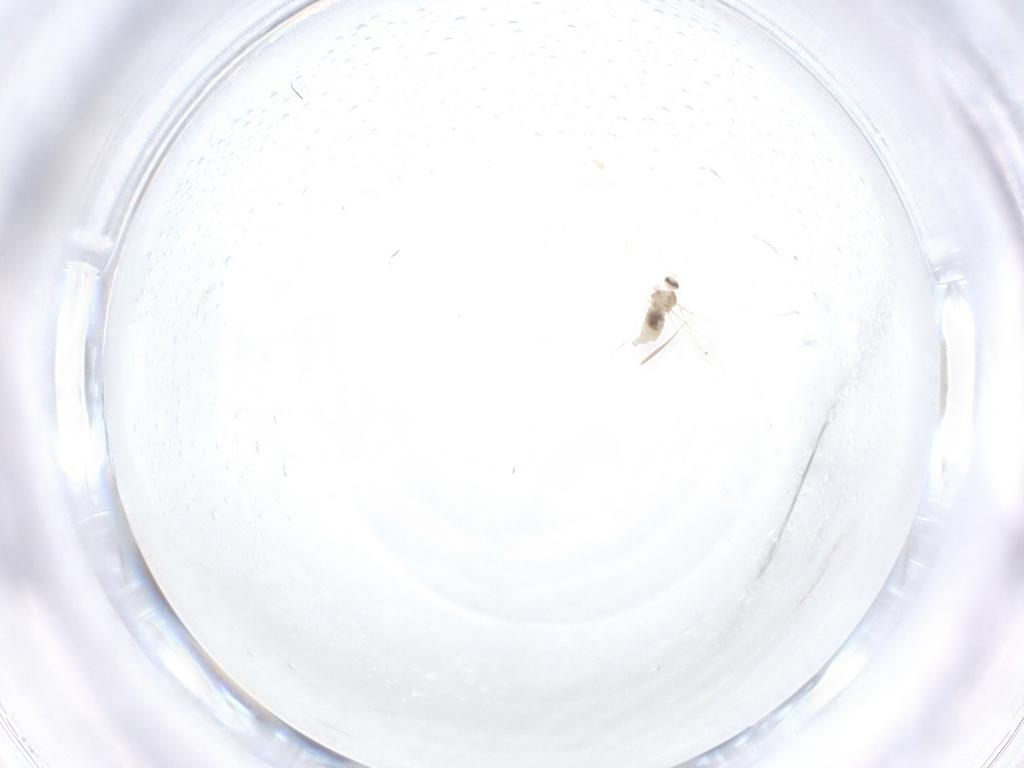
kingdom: Animalia
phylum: Arthropoda
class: Insecta
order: Diptera
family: Cecidomyiidae
